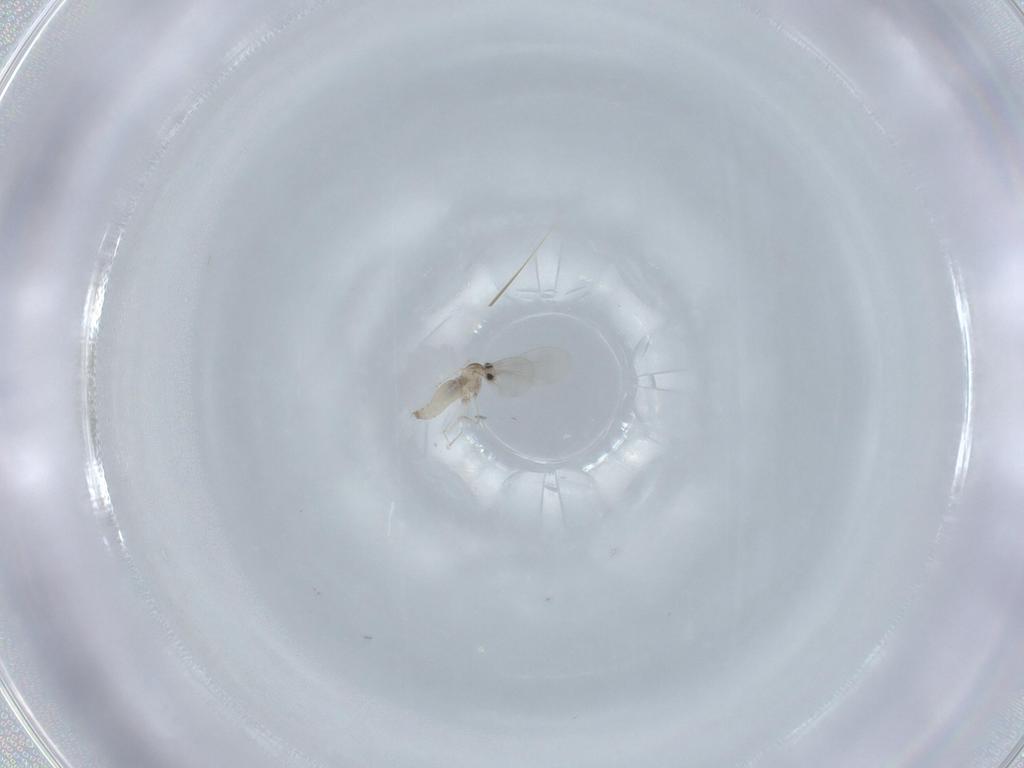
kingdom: Animalia
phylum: Arthropoda
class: Insecta
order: Diptera
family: Cecidomyiidae
